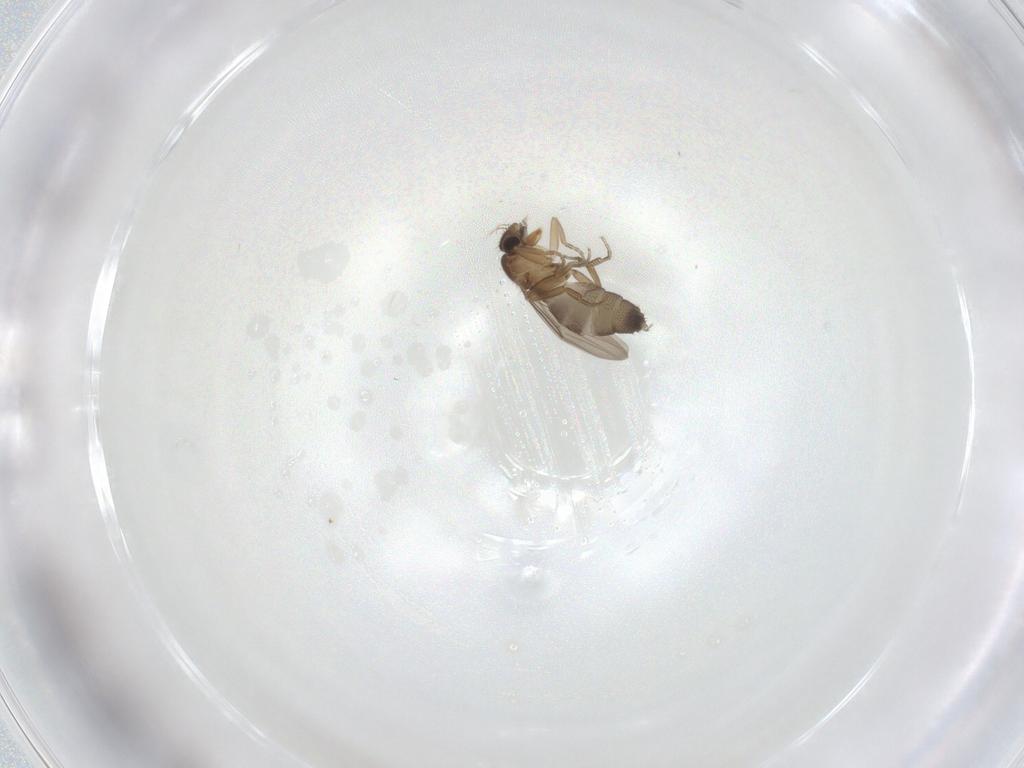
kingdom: Animalia
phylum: Arthropoda
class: Insecta
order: Diptera
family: Phoridae
